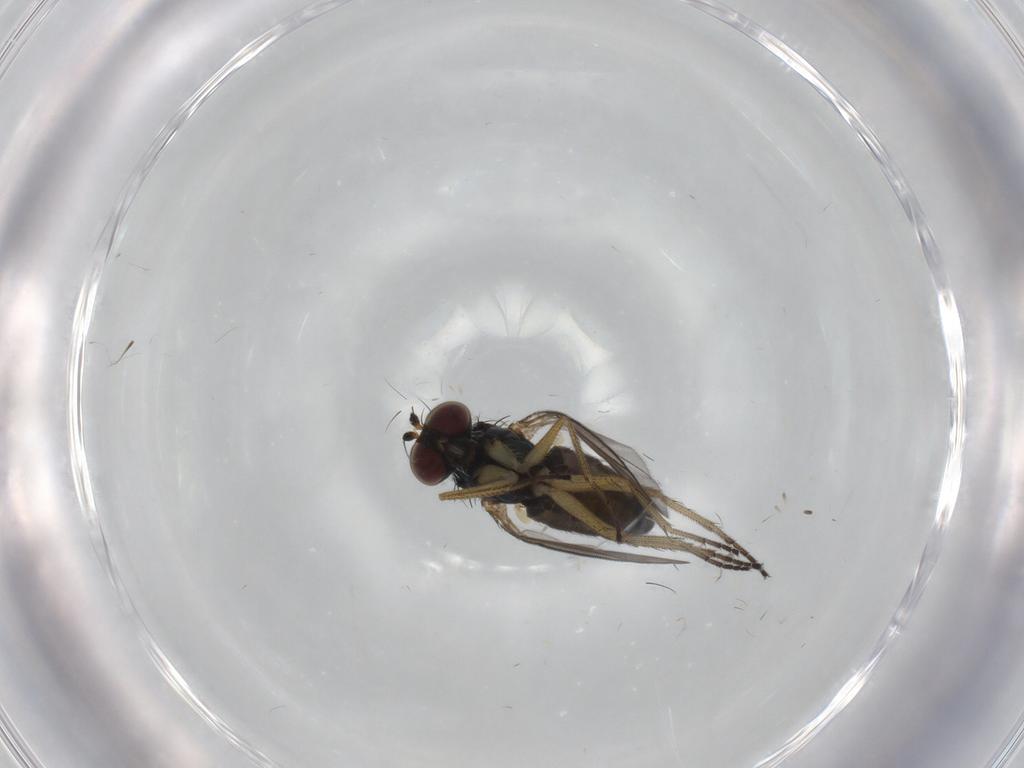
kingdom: Animalia
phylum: Arthropoda
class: Insecta
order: Diptera
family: Dolichopodidae
